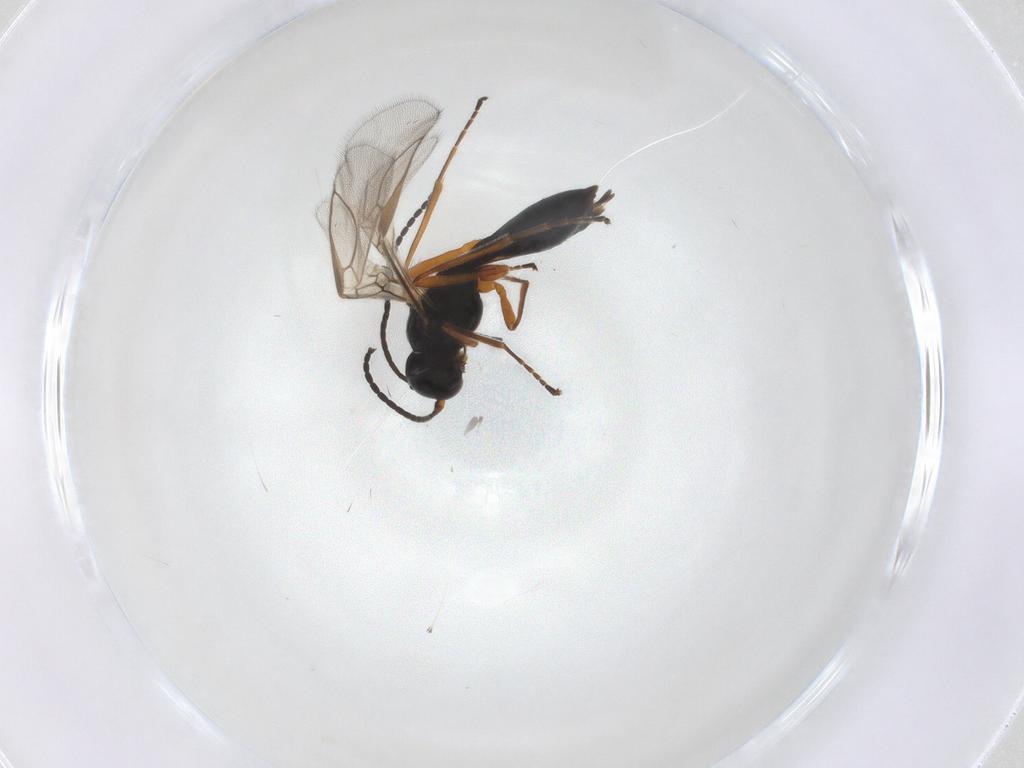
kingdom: Animalia
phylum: Arthropoda
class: Insecta
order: Hymenoptera
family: Braconidae
